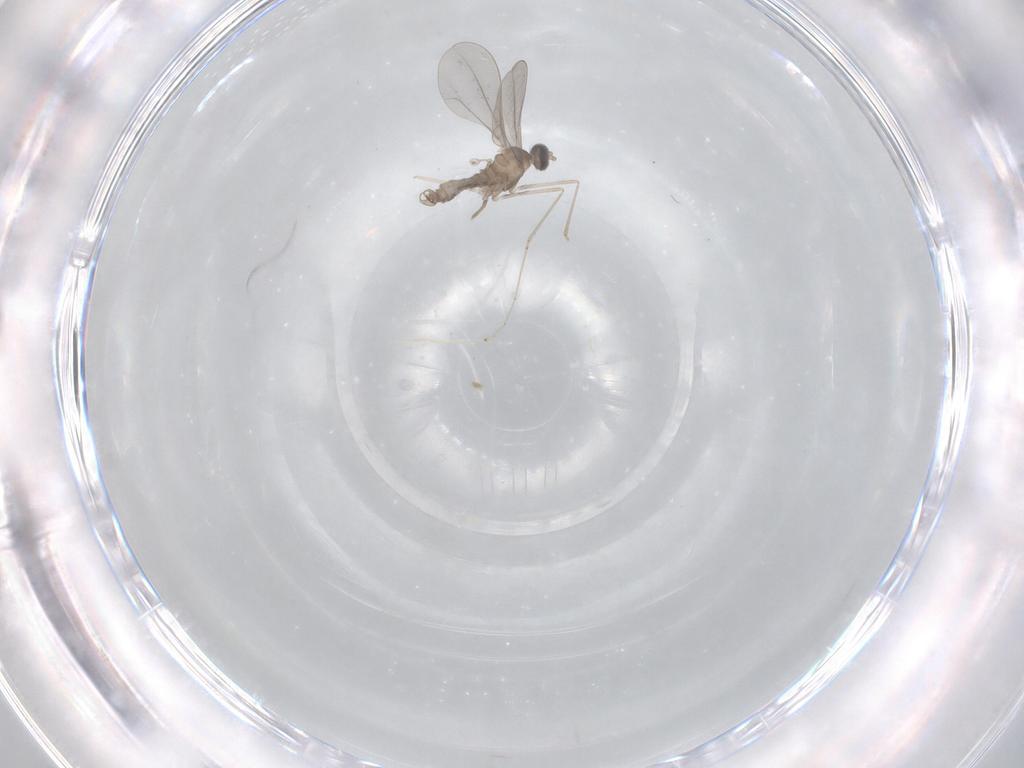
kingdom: Animalia
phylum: Arthropoda
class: Insecta
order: Diptera
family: Cecidomyiidae
